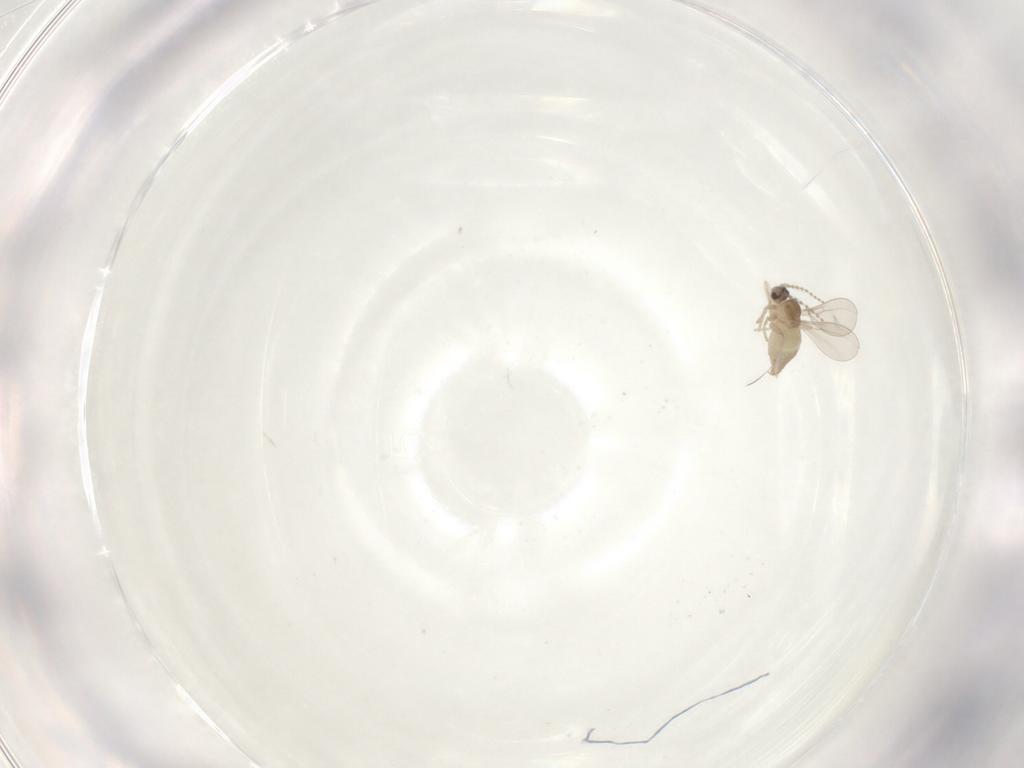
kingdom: Animalia
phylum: Arthropoda
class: Insecta
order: Diptera
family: Cecidomyiidae
